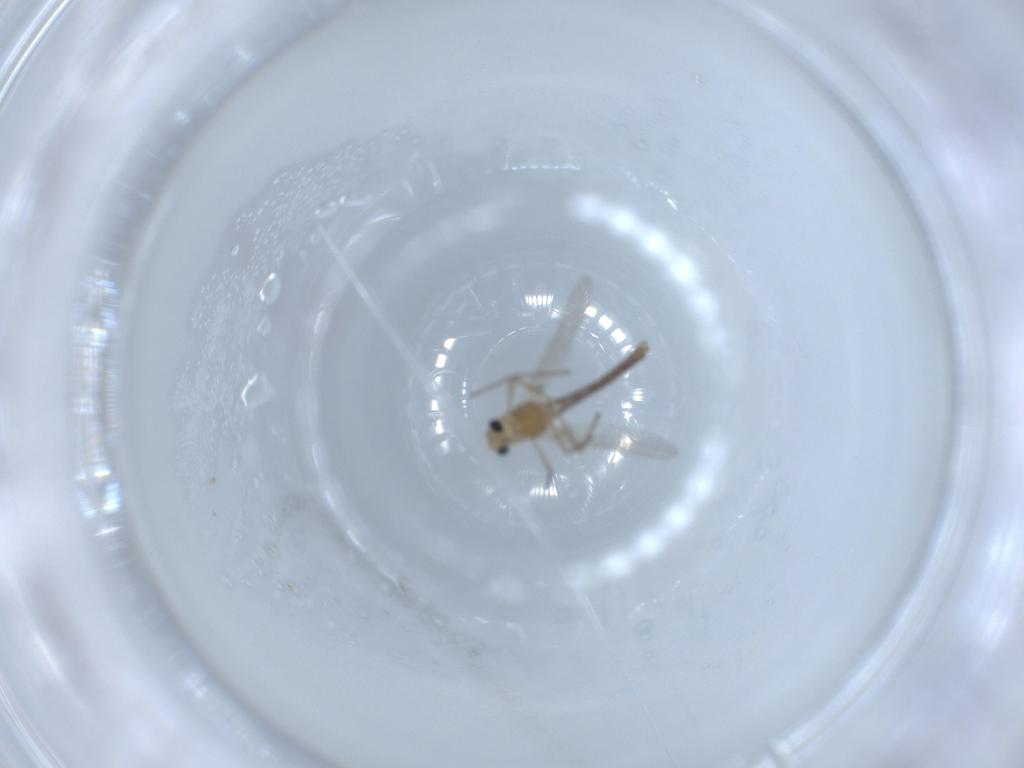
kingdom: Animalia
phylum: Arthropoda
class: Insecta
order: Diptera
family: Chironomidae
